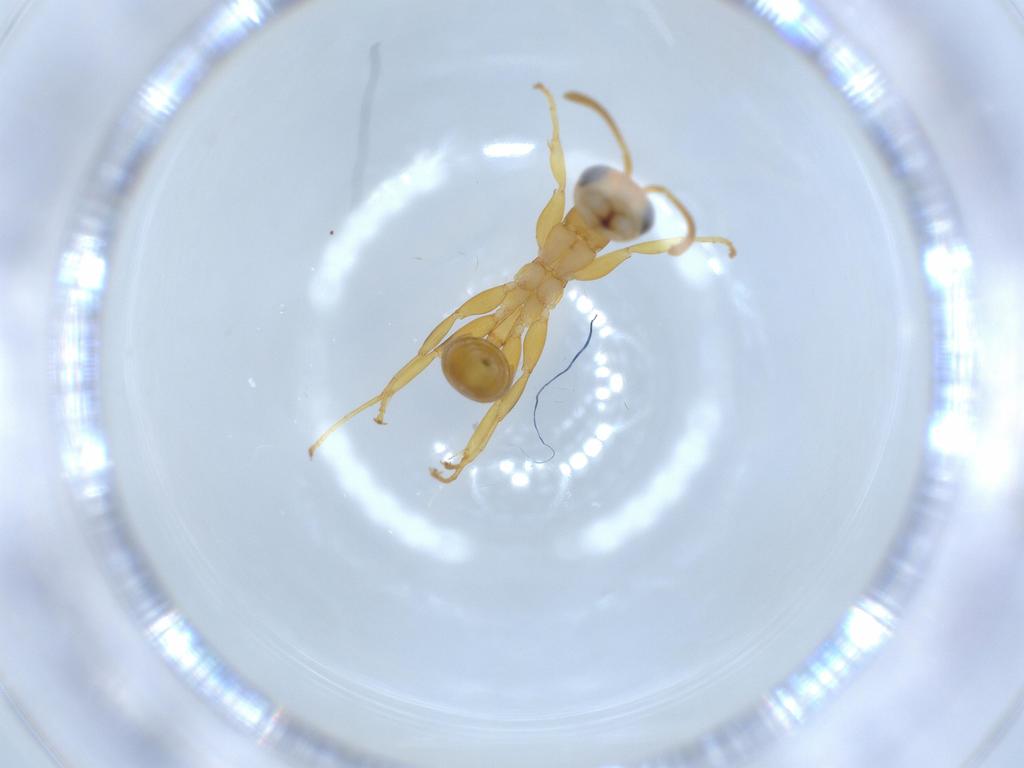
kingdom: Animalia
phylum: Arthropoda
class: Insecta
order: Hymenoptera
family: Formicidae
